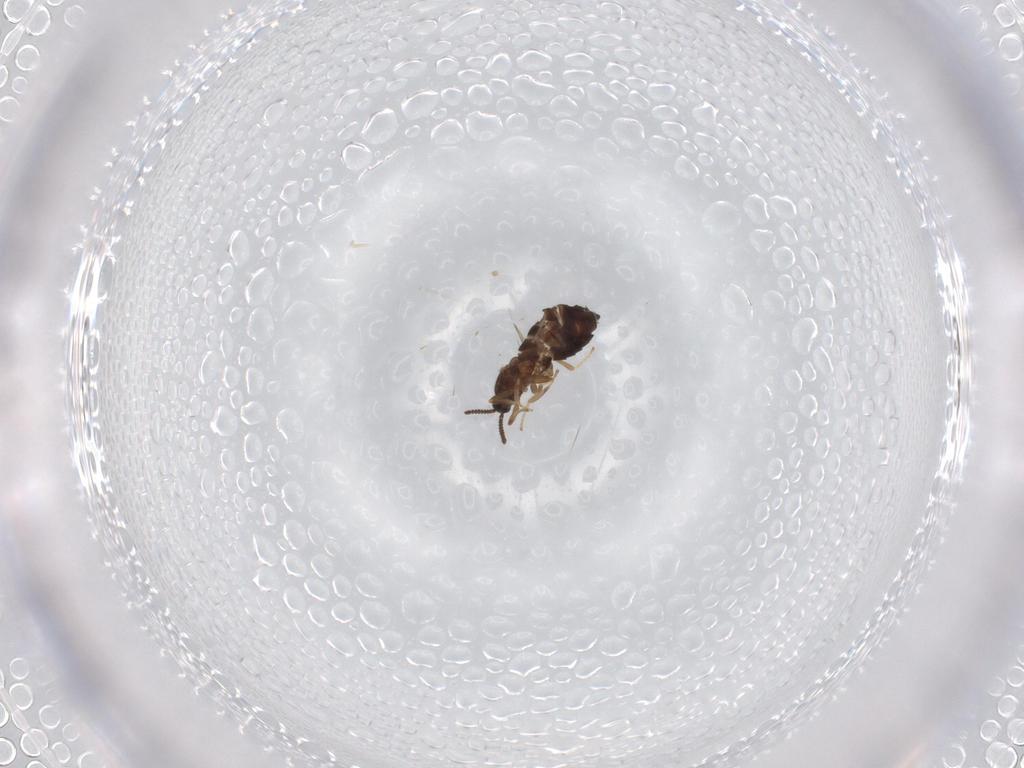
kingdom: Animalia
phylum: Arthropoda
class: Insecta
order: Diptera
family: Scatopsidae
